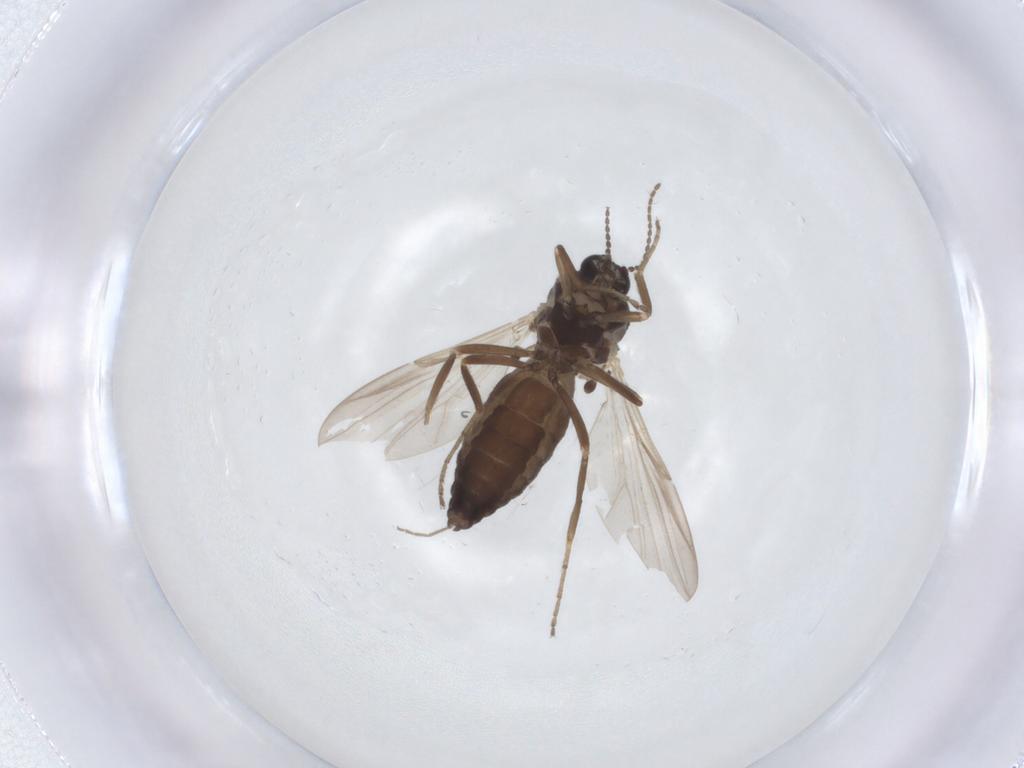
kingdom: Animalia
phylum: Arthropoda
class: Insecta
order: Diptera
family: Ceratopogonidae
